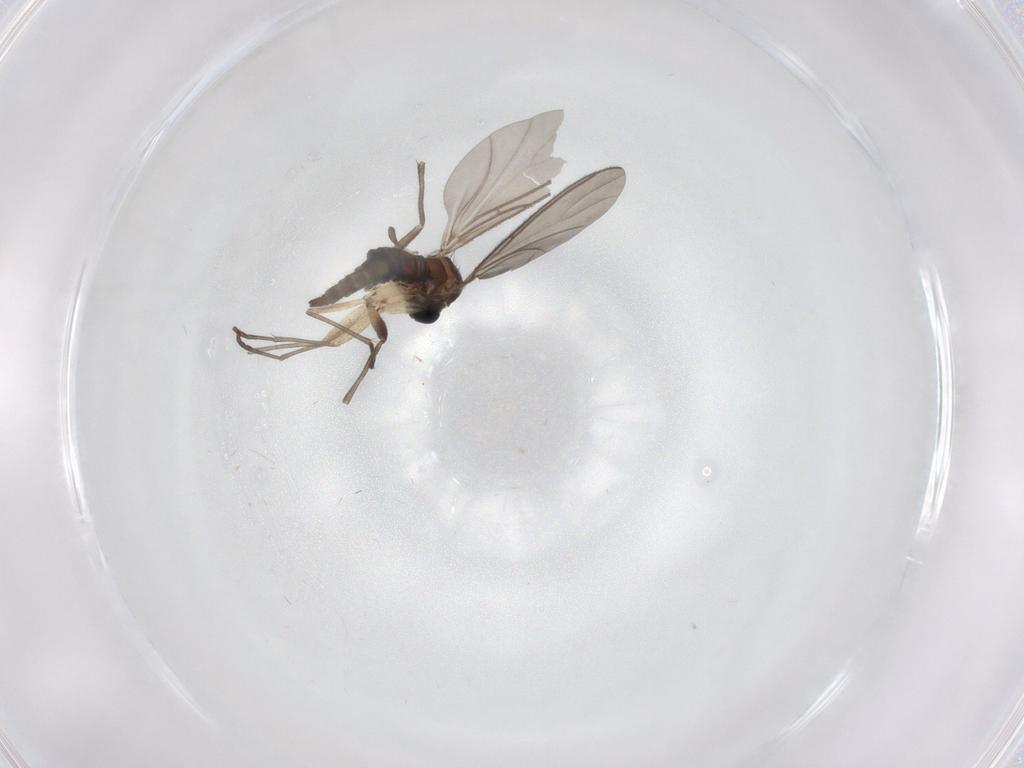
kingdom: Animalia
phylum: Arthropoda
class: Insecta
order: Diptera
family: Sciaridae
